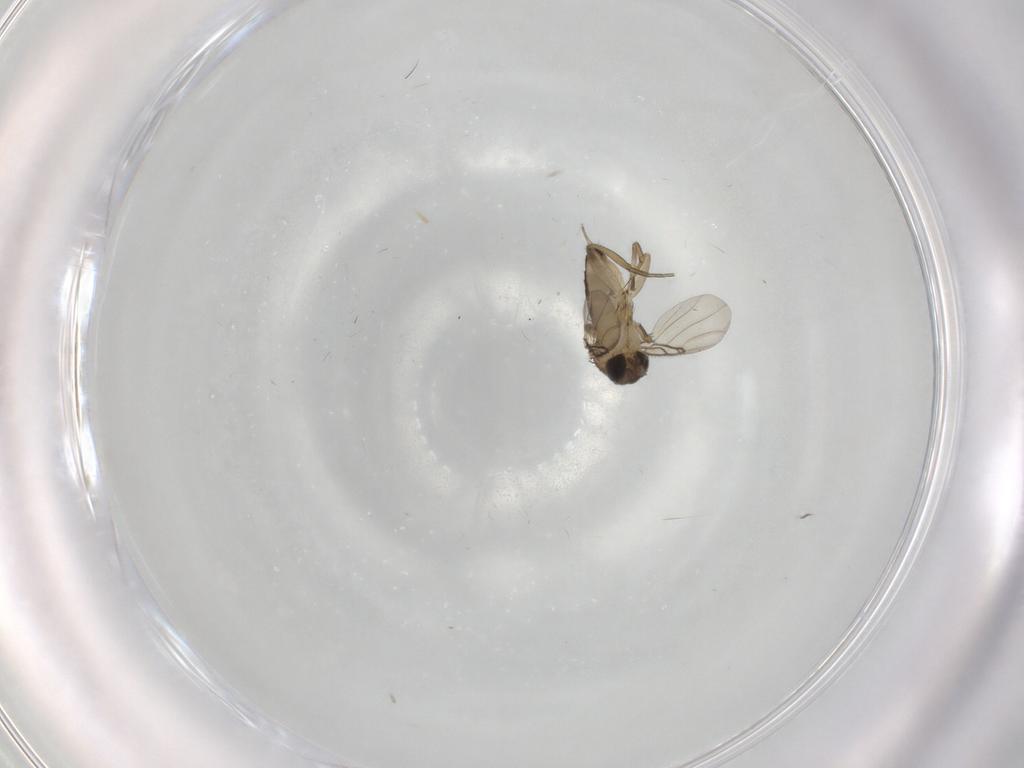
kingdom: Animalia
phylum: Arthropoda
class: Insecta
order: Diptera
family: Phoridae
